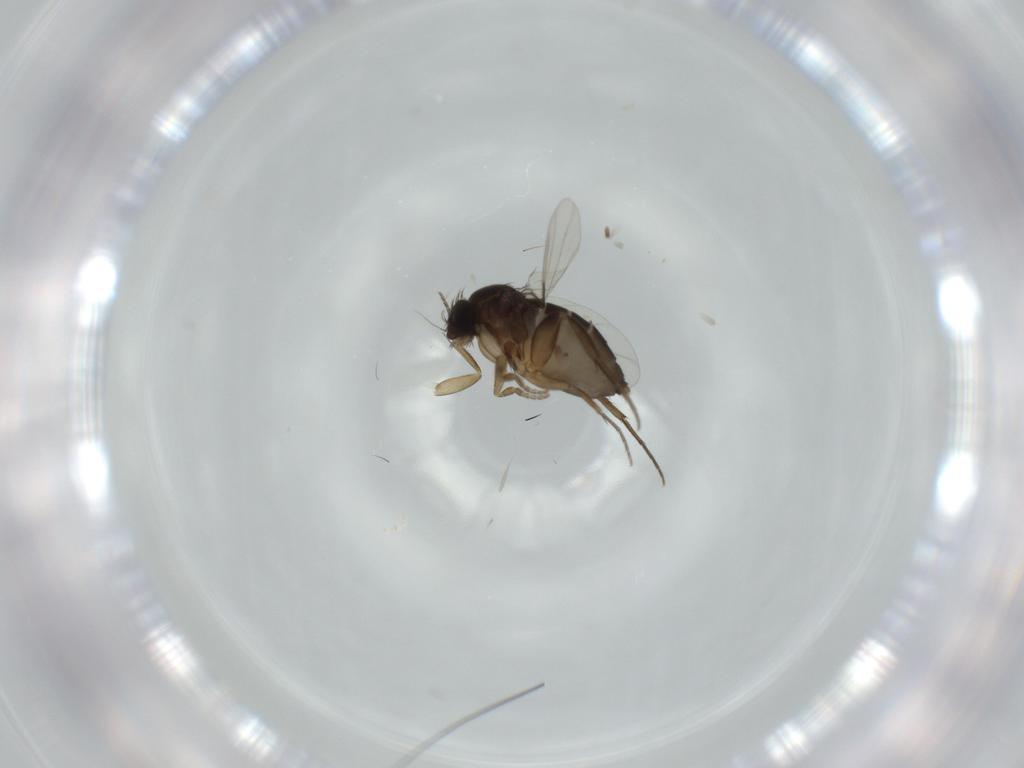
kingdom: Animalia
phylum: Arthropoda
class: Insecta
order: Diptera
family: Phoridae
